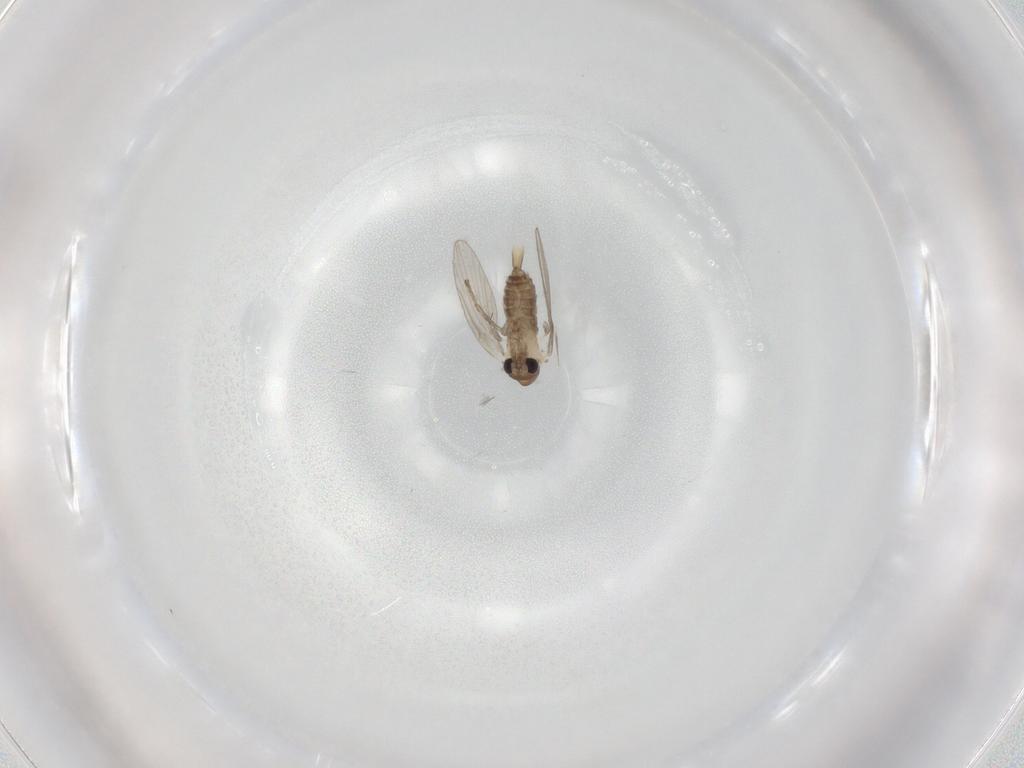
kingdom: Animalia
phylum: Arthropoda
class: Insecta
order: Diptera
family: Psychodidae
